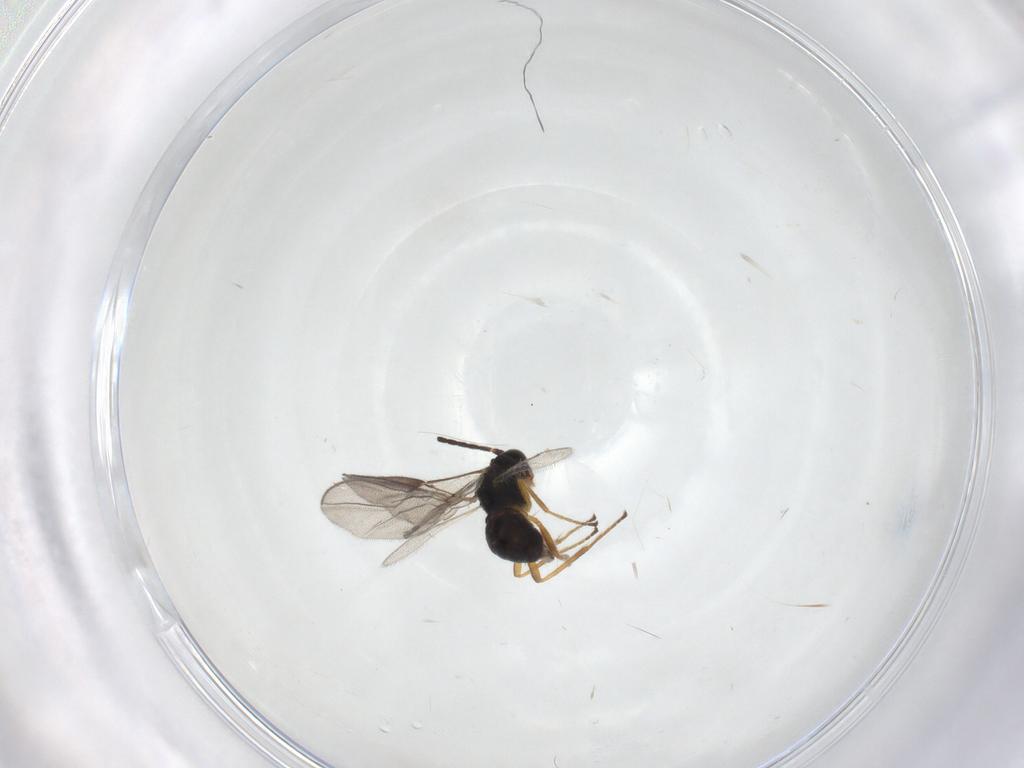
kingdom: Animalia
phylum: Arthropoda
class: Insecta
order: Hymenoptera
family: Braconidae
